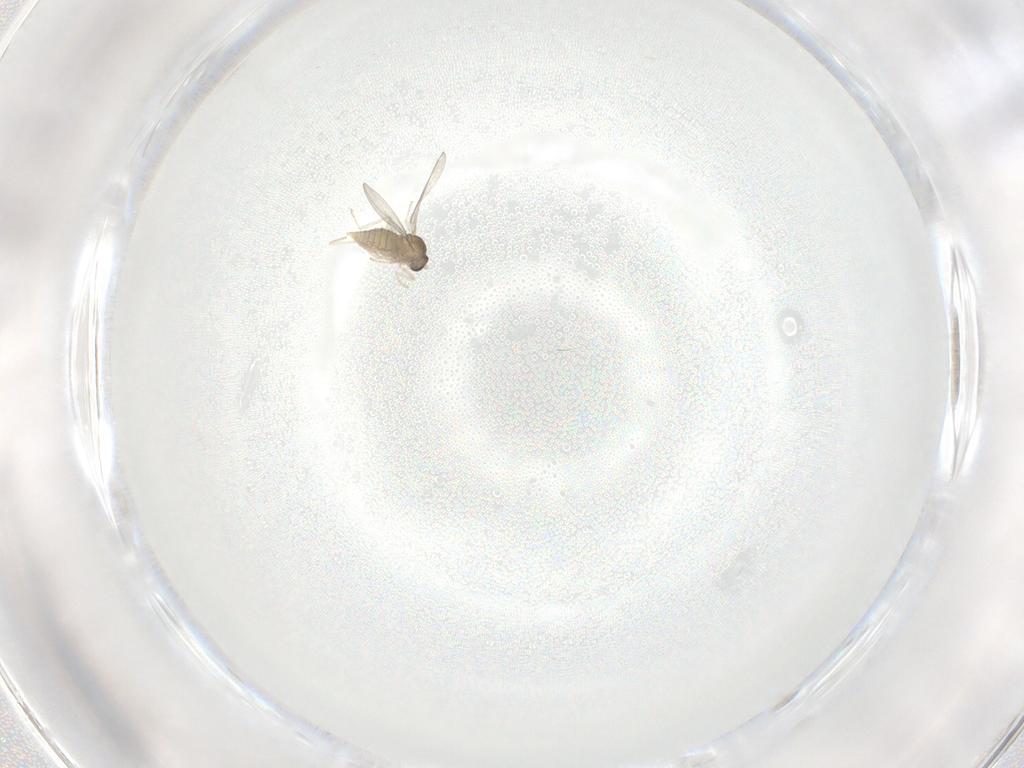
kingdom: Animalia
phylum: Arthropoda
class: Insecta
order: Diptera
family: Cecidomyiidae
